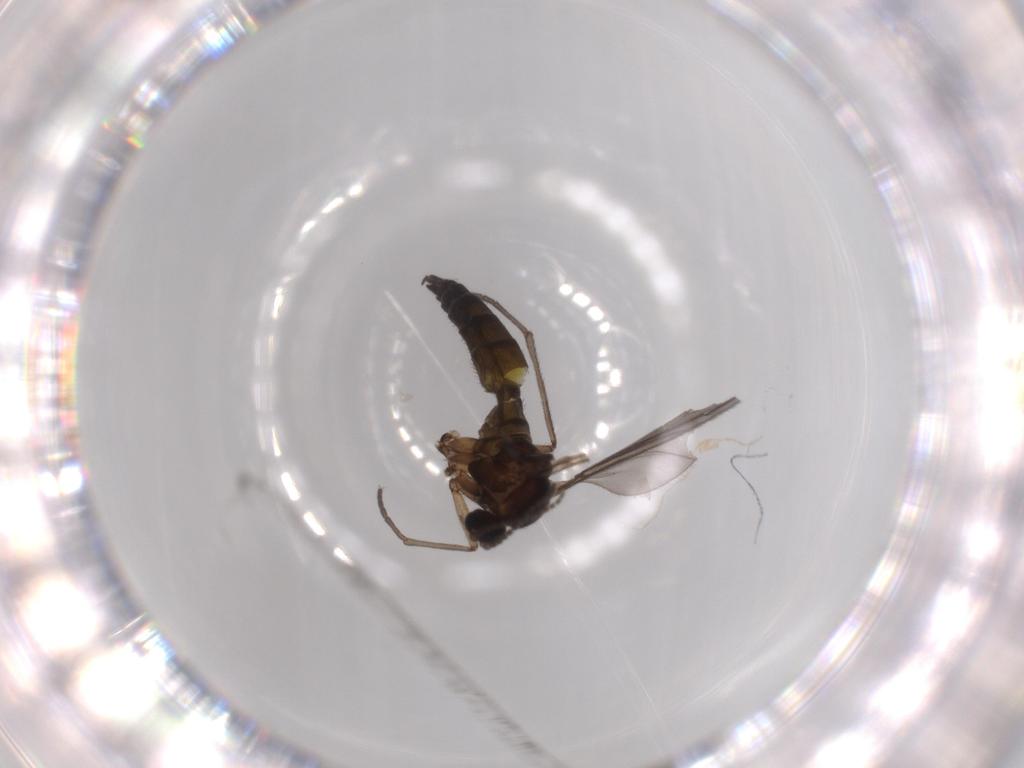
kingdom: Animalia
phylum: Arthropoda
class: Insecta
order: Diptera
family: Sciaridae
